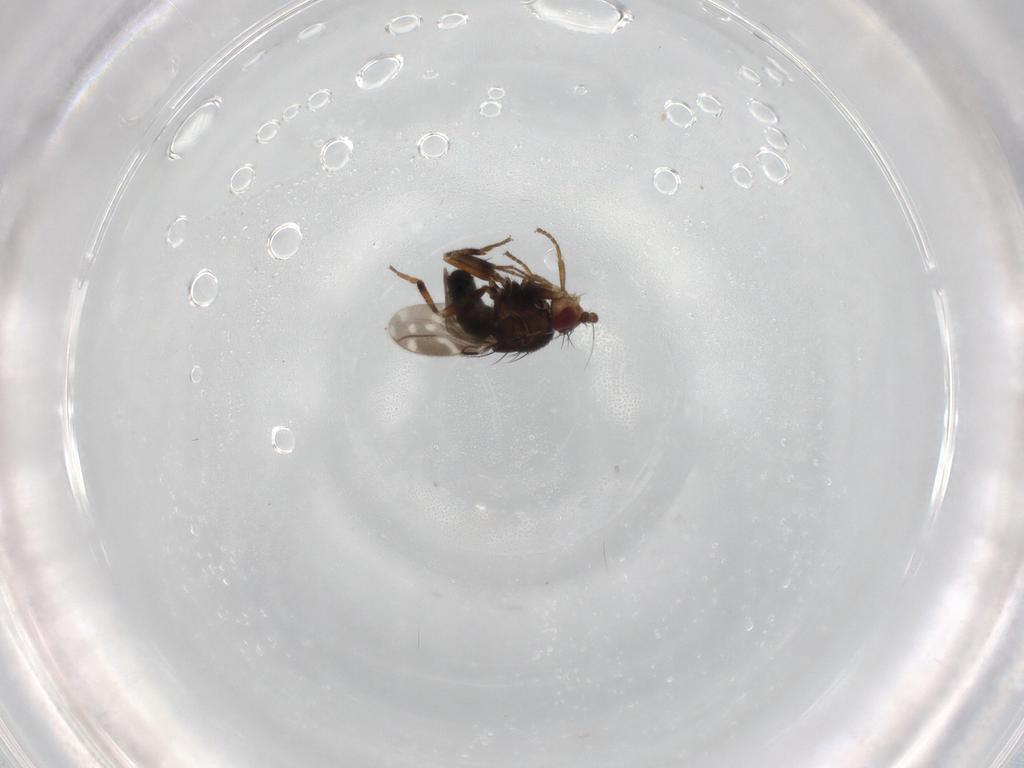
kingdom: Animalia
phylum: Arthropoda
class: Insecta
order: Diptera
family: Sphaeroceridae
